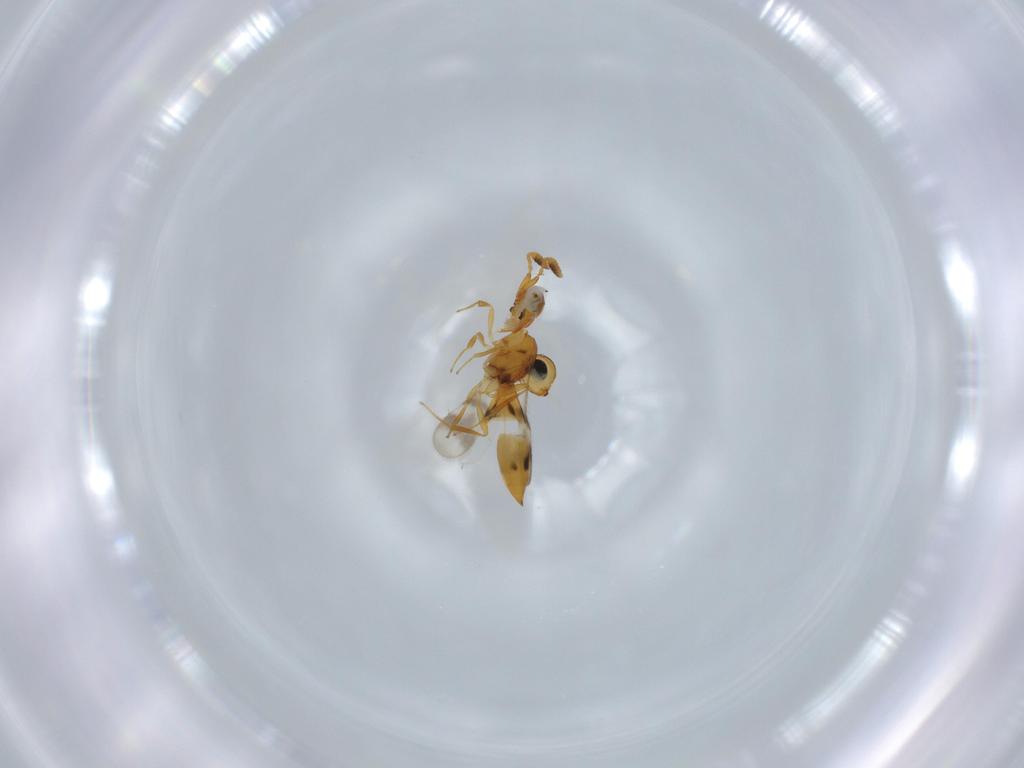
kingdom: Animalia
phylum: Arthropoda
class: Insecta
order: Hymenoptera
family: Scelionidae
